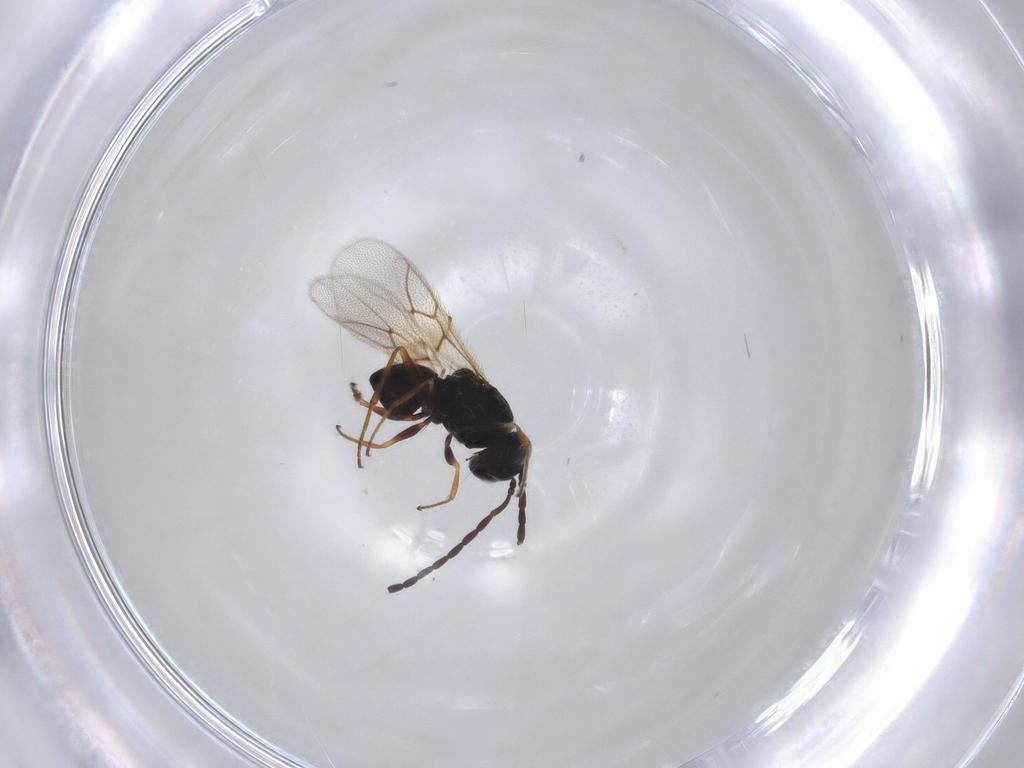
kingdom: Animalia
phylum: Arthropoda
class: Insecta
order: Hymenoptera
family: Figitidae
